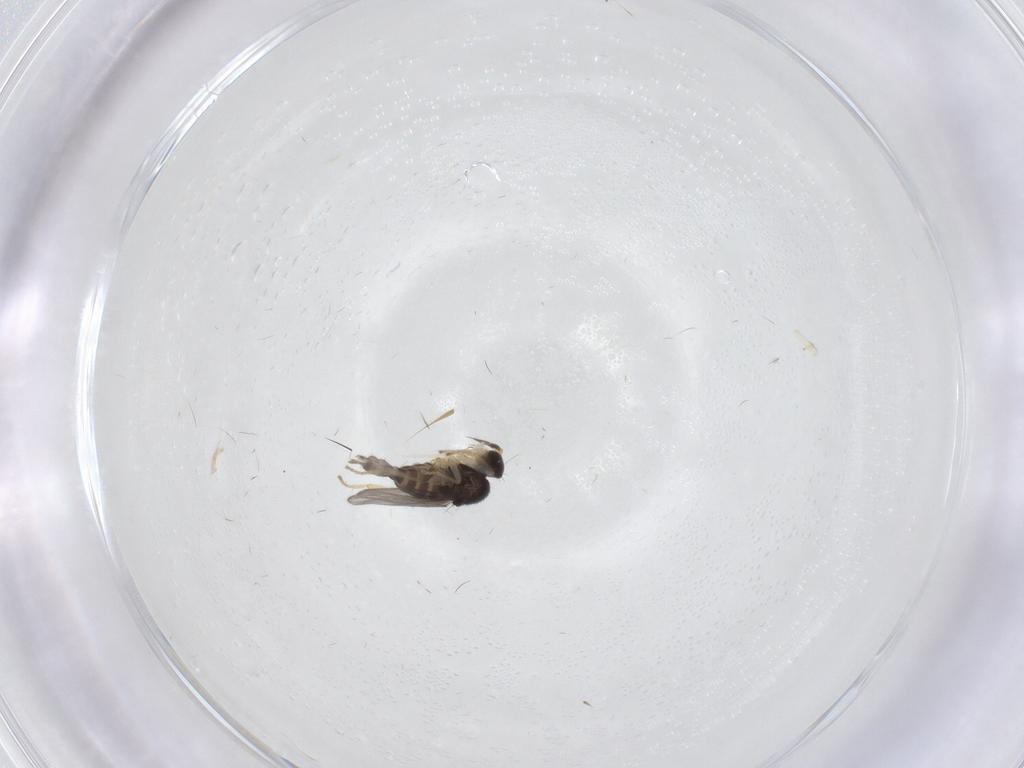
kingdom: Animalia
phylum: Arthropoda
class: Insecta
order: Diptera
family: Hybotidae
